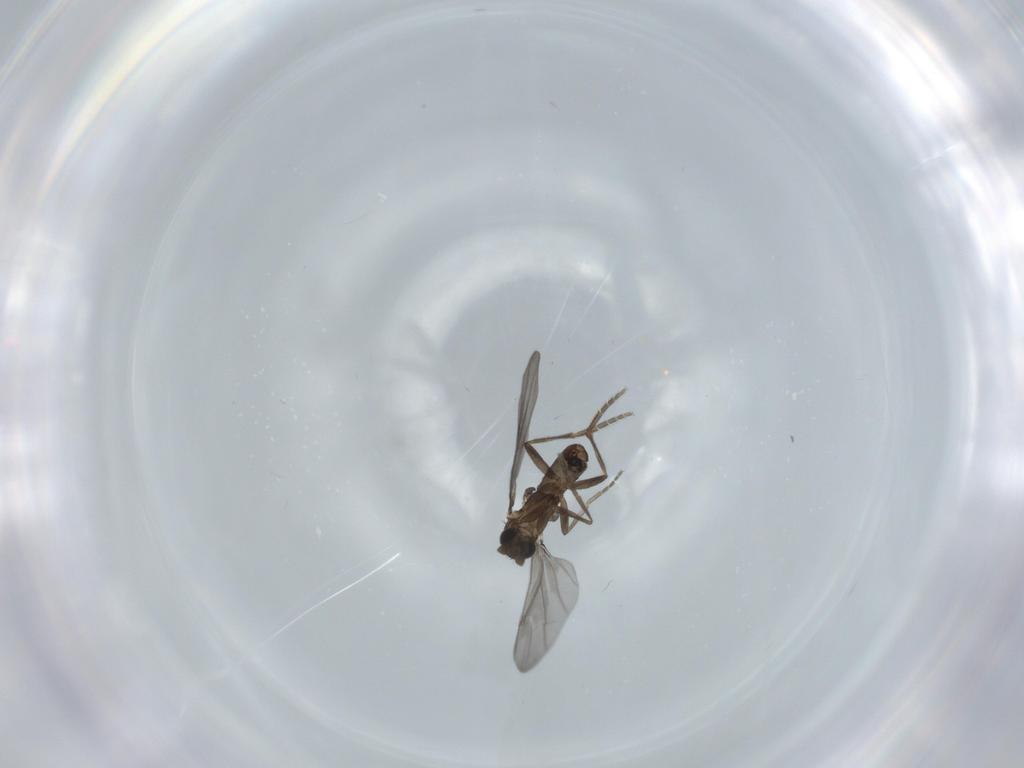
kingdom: Animalia
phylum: Arthropoda
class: Insecta
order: Diptera
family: Phoridae
